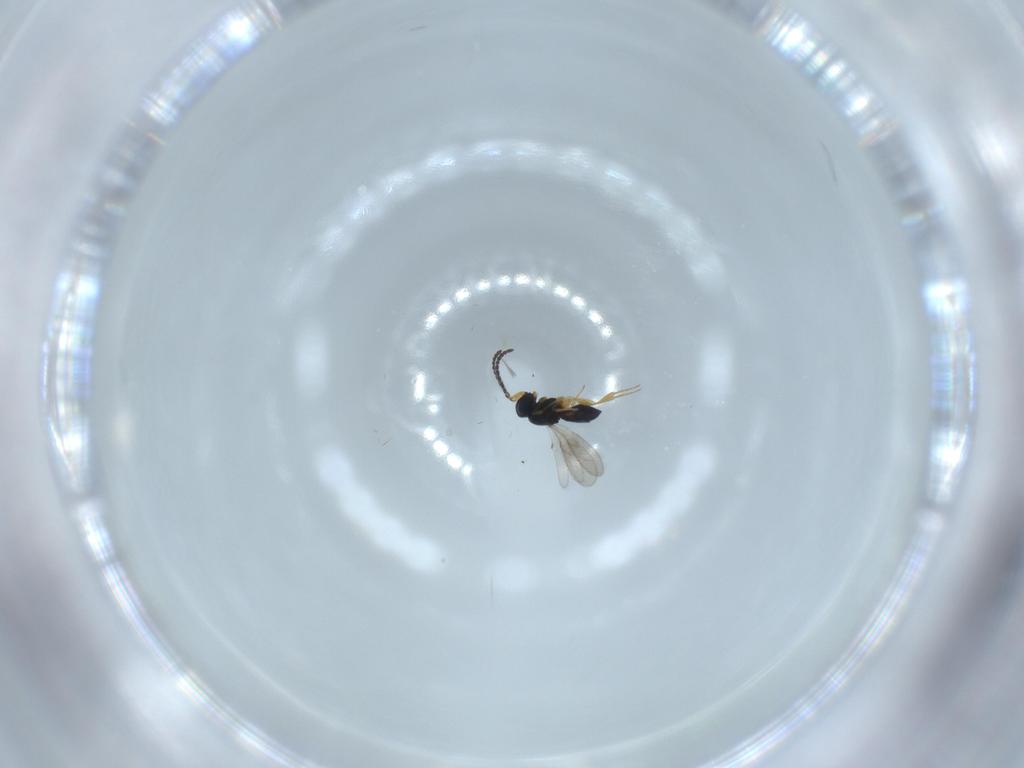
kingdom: Animalia
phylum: Arthropoda
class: Insecta
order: Hymenoptera
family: Scelionidae
